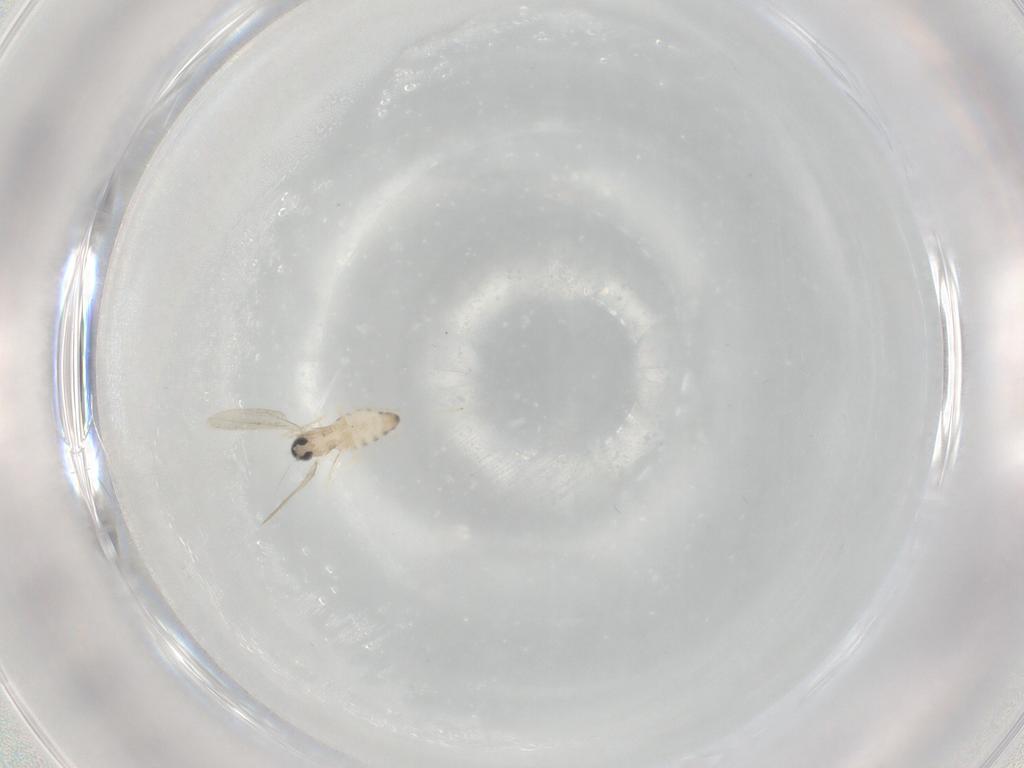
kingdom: Animalia
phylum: Arthropoda
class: Insecta
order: Diptera
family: Cecidomyiidae
